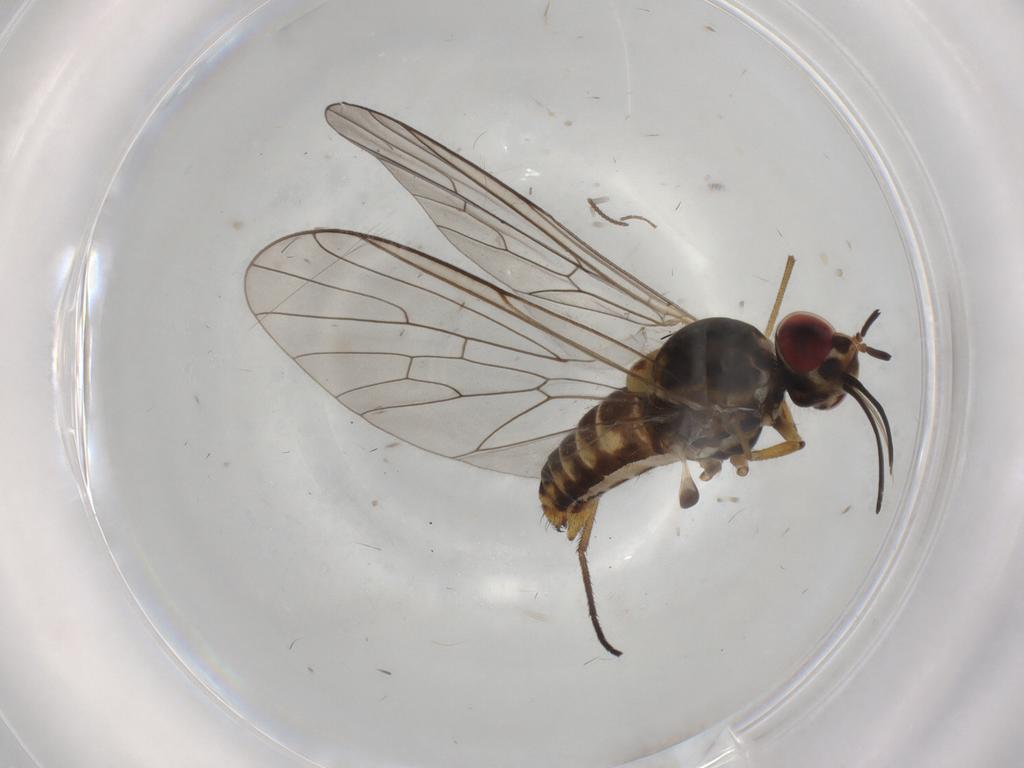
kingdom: Animalia
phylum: Arthropoda
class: Insecta
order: Diptera
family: Bombyliidae
